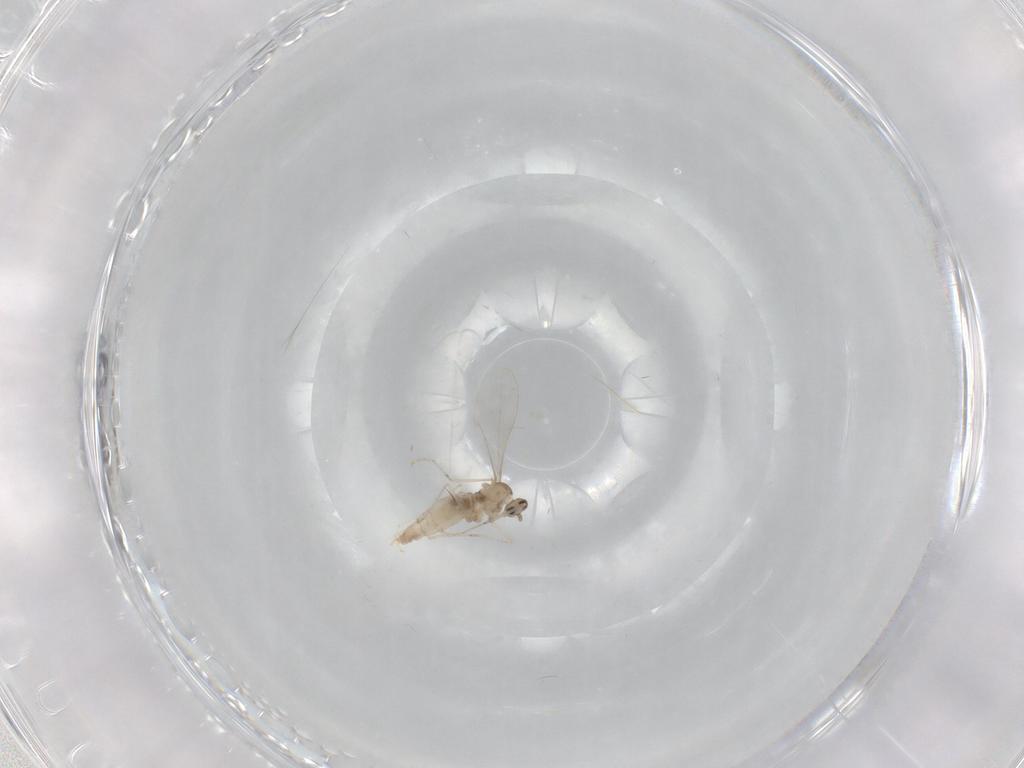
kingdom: Animalia
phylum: Arthropoda
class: Insecta
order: Diptera
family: Cecidomyiidae
